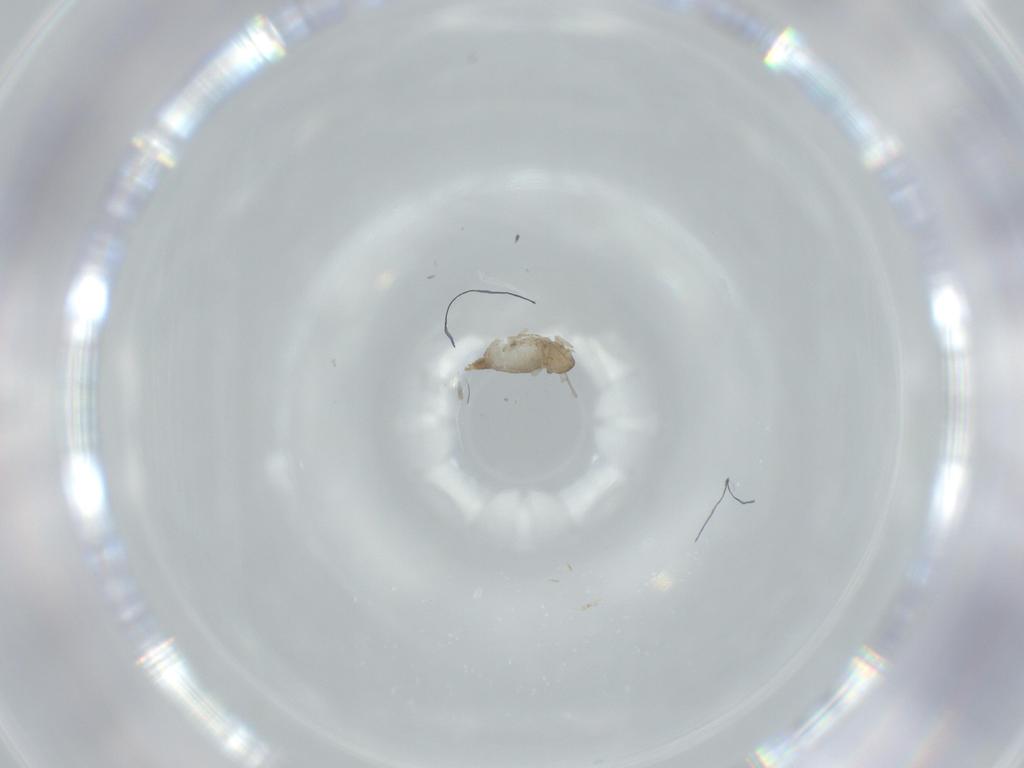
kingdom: Animalia
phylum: Arthropoda
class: Insecta
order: Diptera
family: Cecidomyiidae
